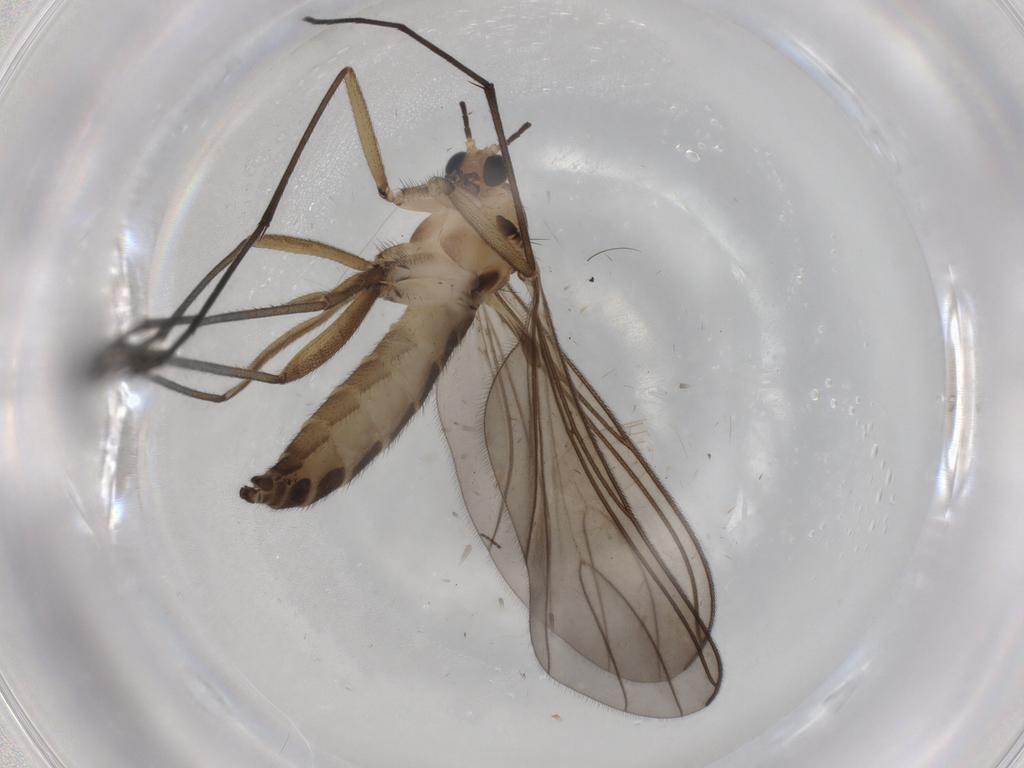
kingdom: Animalia
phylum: Arthropoda
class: Insecta
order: Diptera
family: Sciaridae
